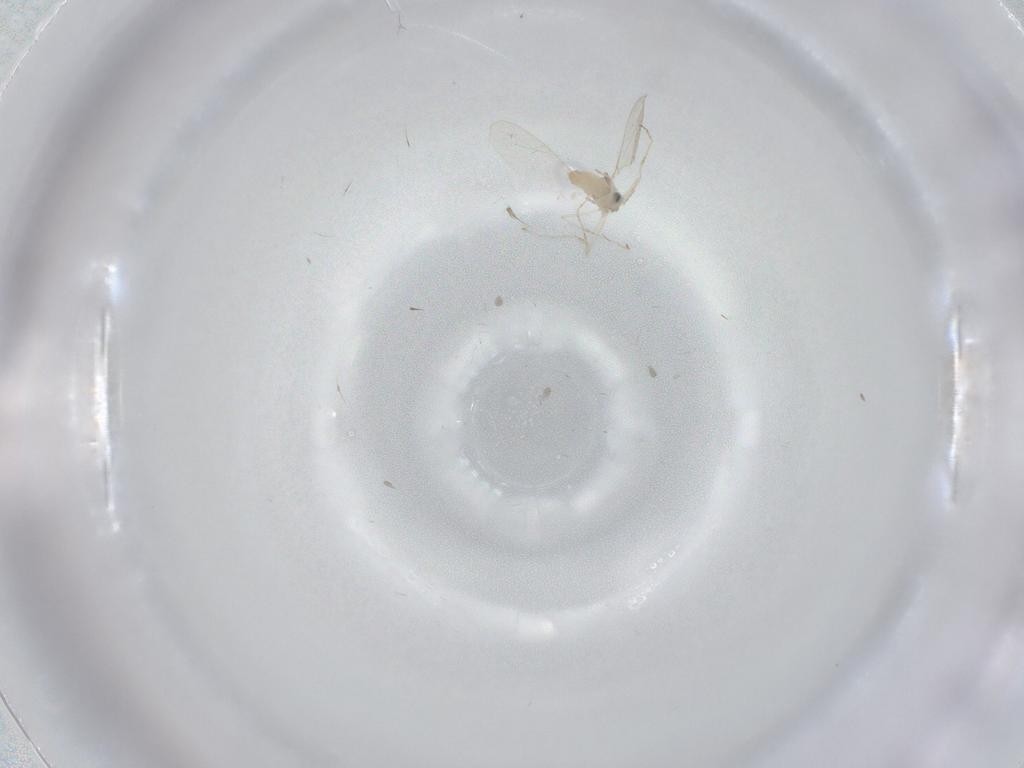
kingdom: Animalia
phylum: Arthropoda
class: Insecta
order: Diptera
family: Cecidomyiidae
